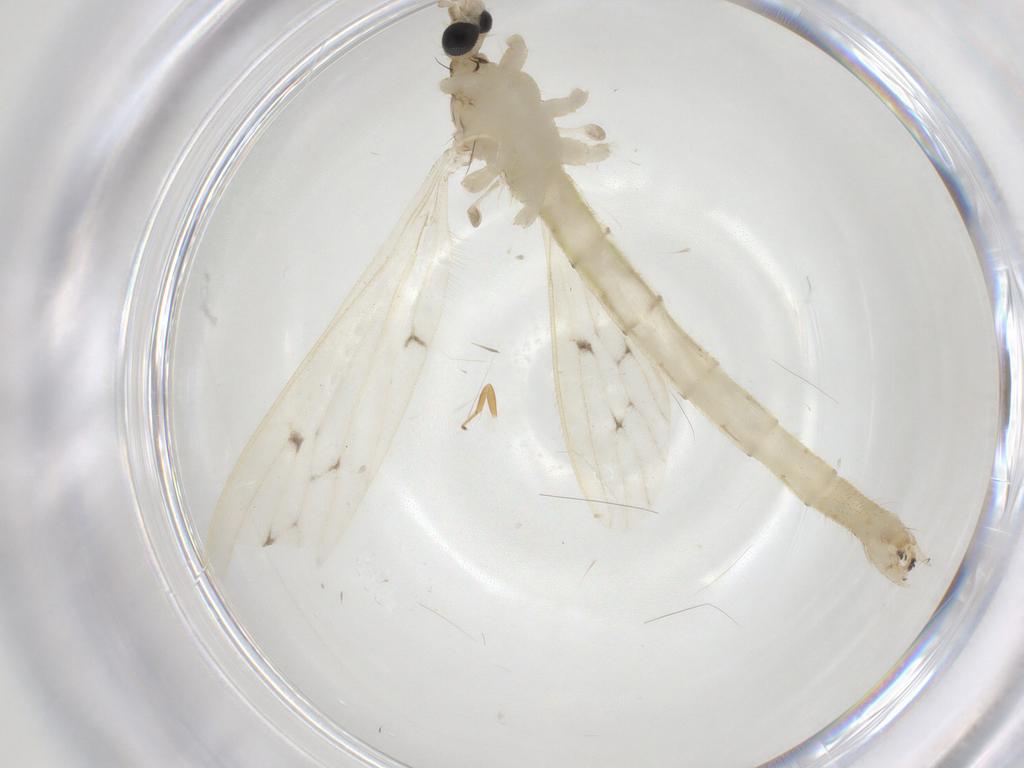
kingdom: Animalia
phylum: Arthropoda
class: Insecta
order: Diptera
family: Limoniidae
